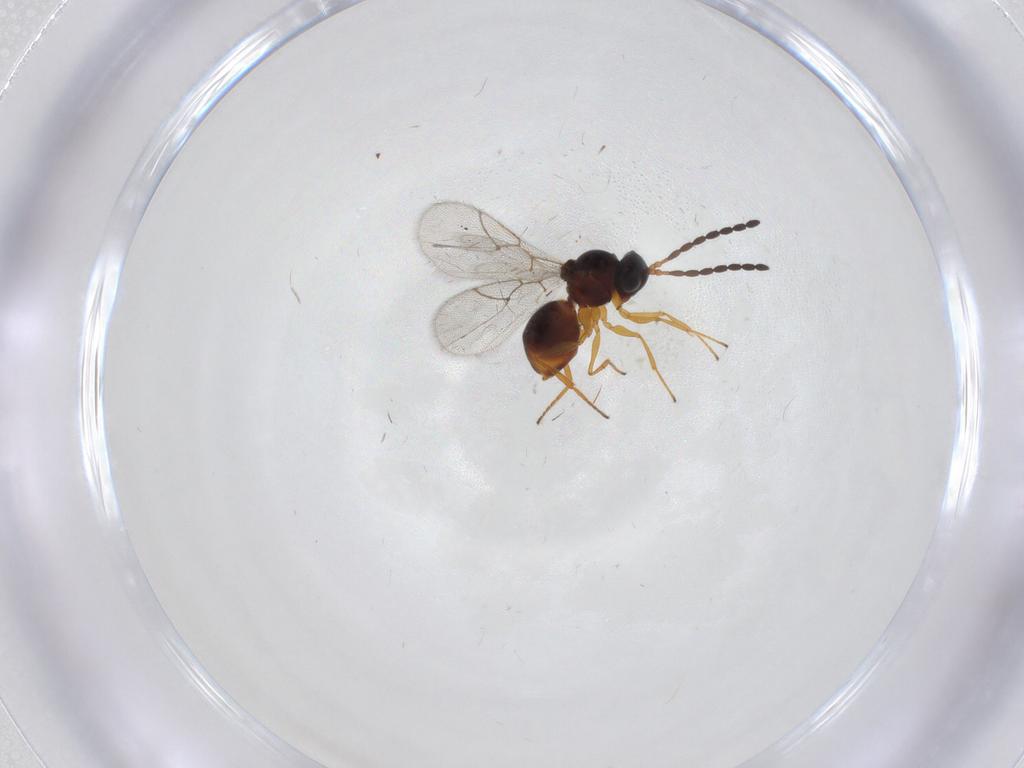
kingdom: Animalia
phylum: Arthropoda
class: Insecta
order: Hymenoptera
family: Figitidae
